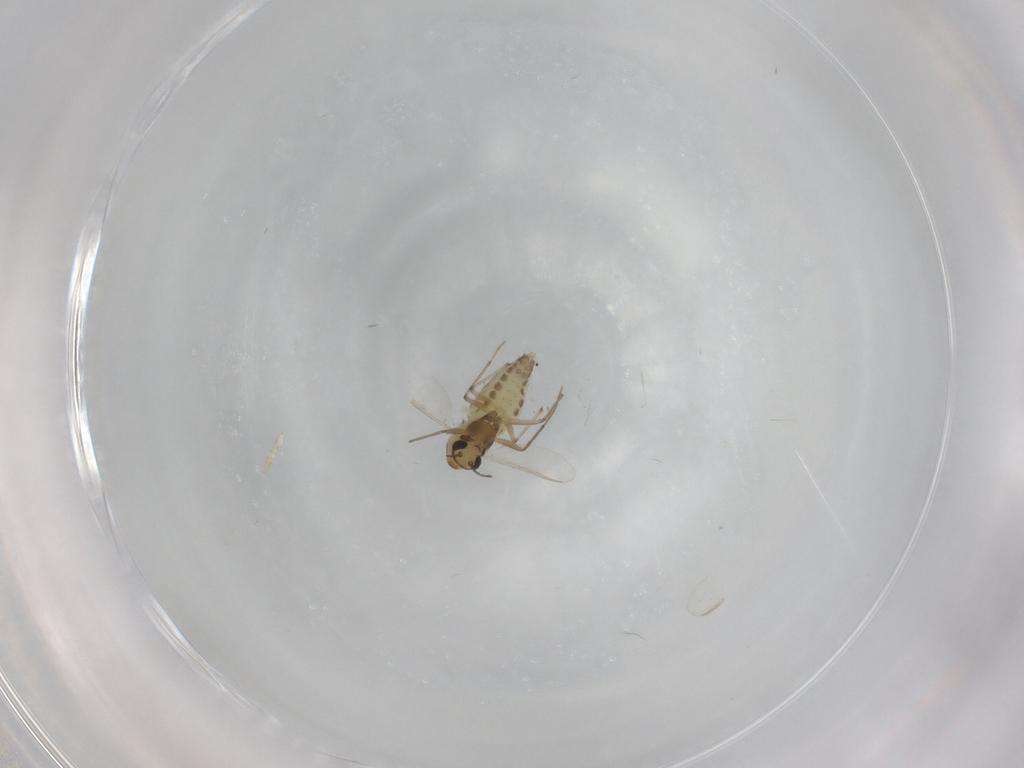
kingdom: Animalia
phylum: Arthropoda
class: Insecta
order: Diptera
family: Chironomidae
